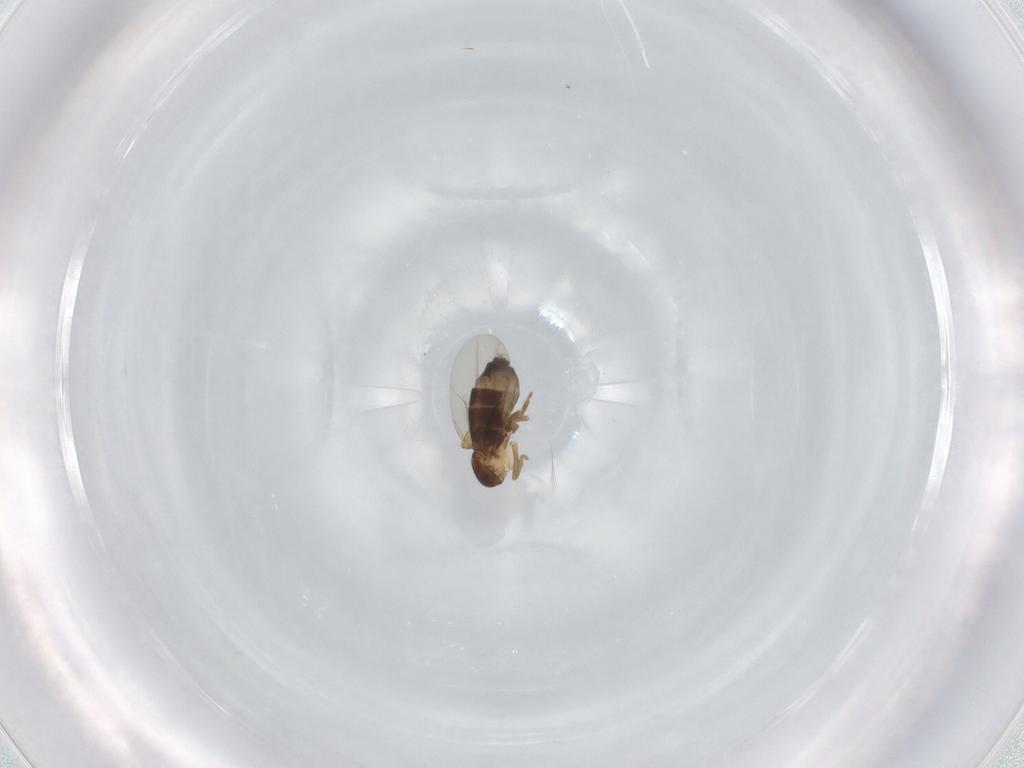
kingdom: Animalia
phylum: Arthropoda
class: Insecta
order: Diptera
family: Phoridae
